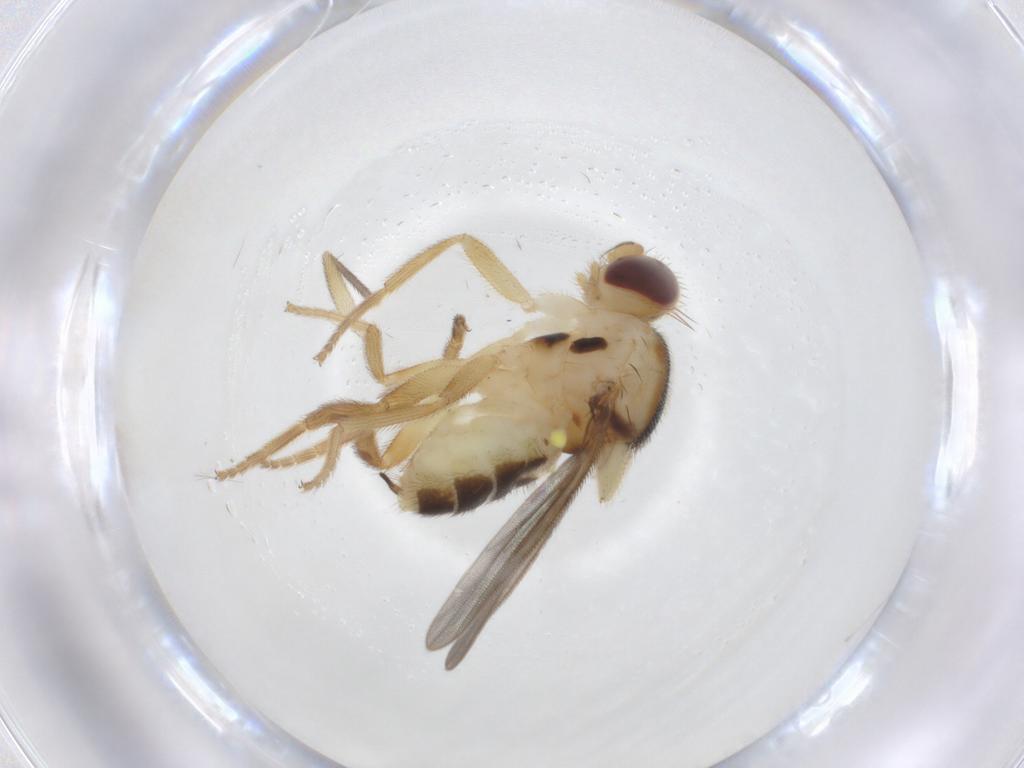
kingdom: Animalia
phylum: Arthropoda
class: Insecta
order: Diptera
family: Chloropidae
